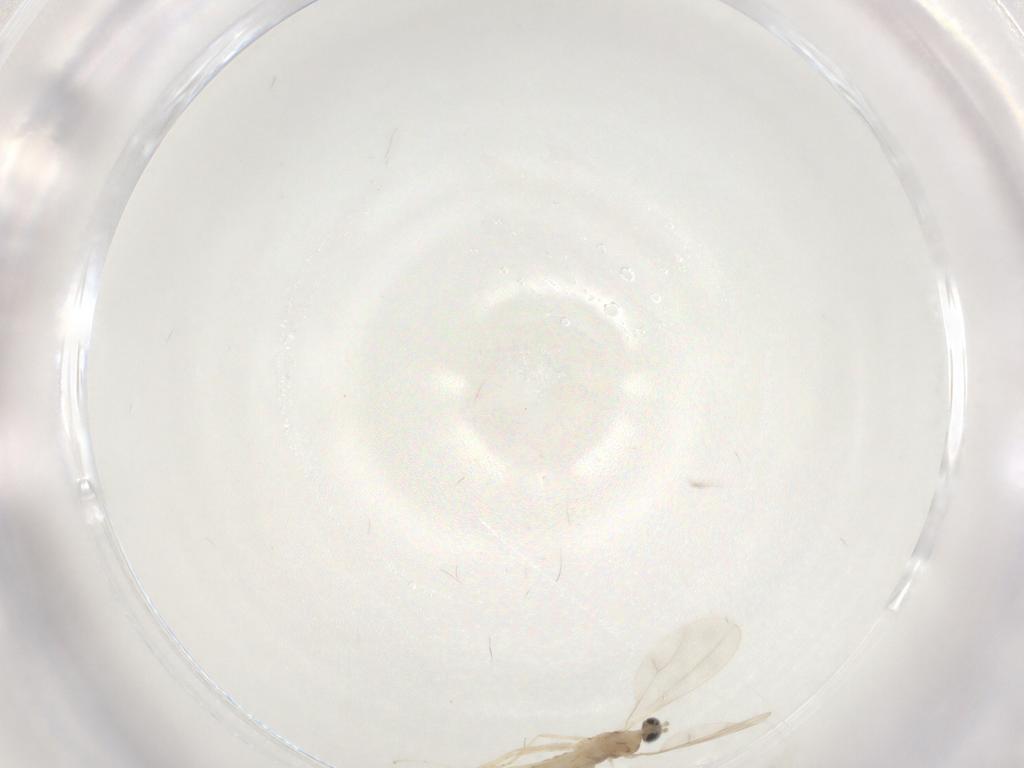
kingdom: Animalia
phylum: Arthropoda
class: Insecta
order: Diptera
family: Cecidomyiidae
